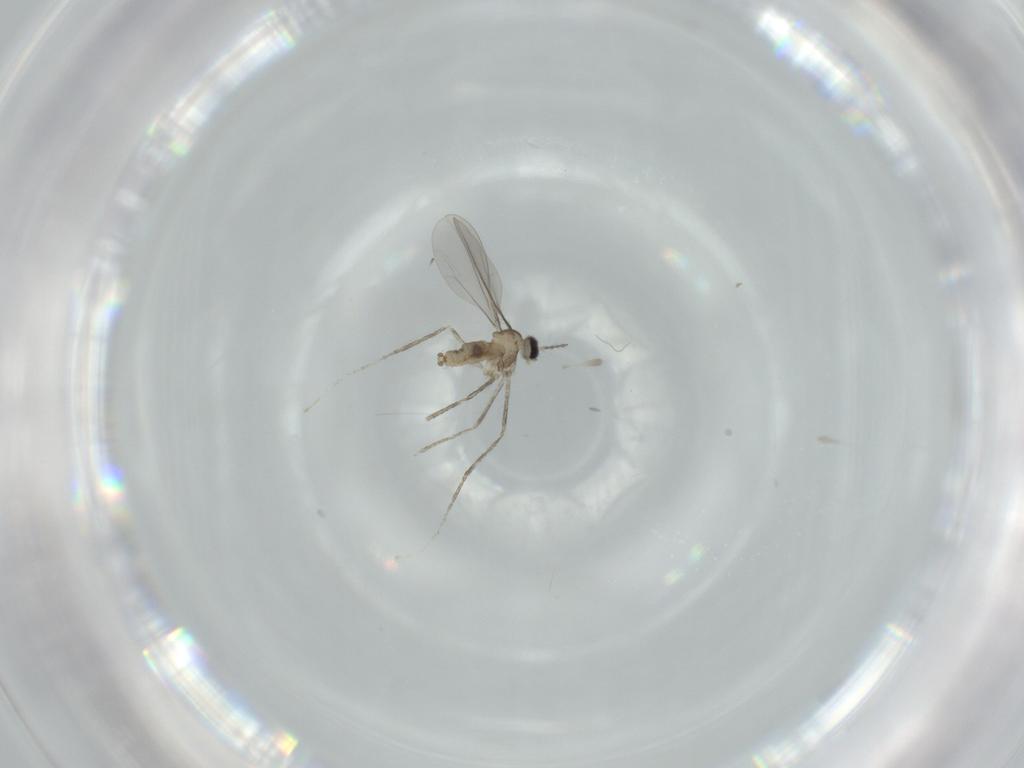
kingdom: Animalia
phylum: Arthropoda
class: Insecta
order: Diptera
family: Cecidomyiidae
